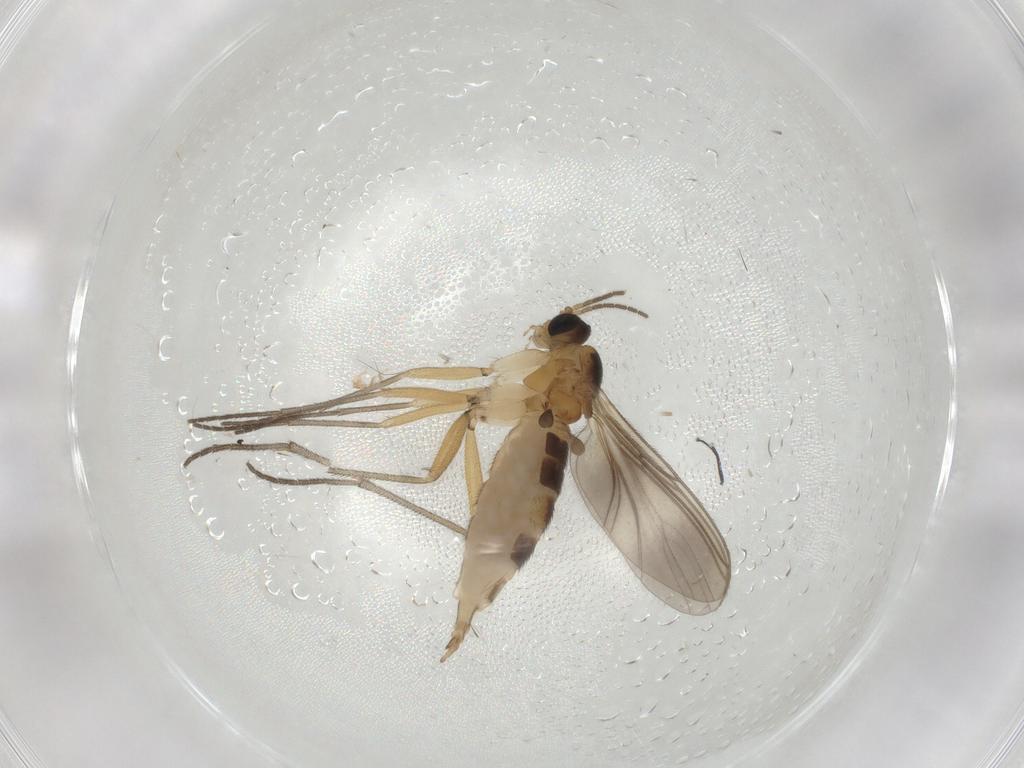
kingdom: Animalia
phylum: Arthropoda
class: Insecta
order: Diptera
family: Sciaridae
